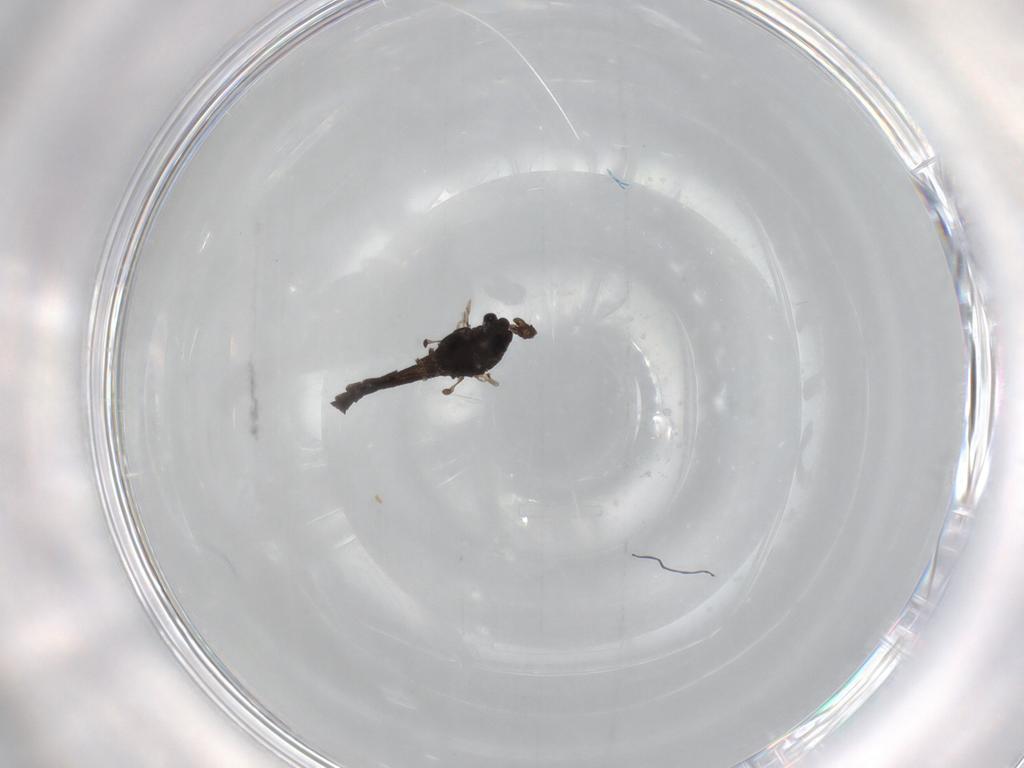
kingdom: Animalia
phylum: Arthropoda
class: Insecta
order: Diptera
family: Chironomidae
